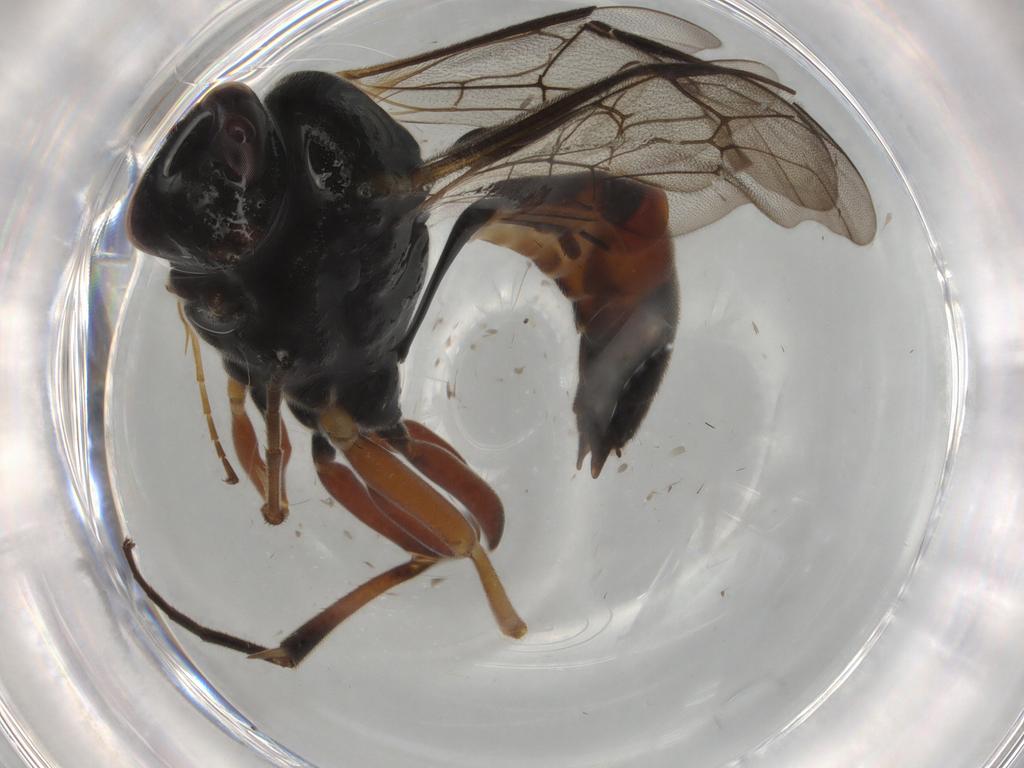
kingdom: Animalia
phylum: Arthropoda
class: Insecta
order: Hymenoptera
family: Ichneumonidae
